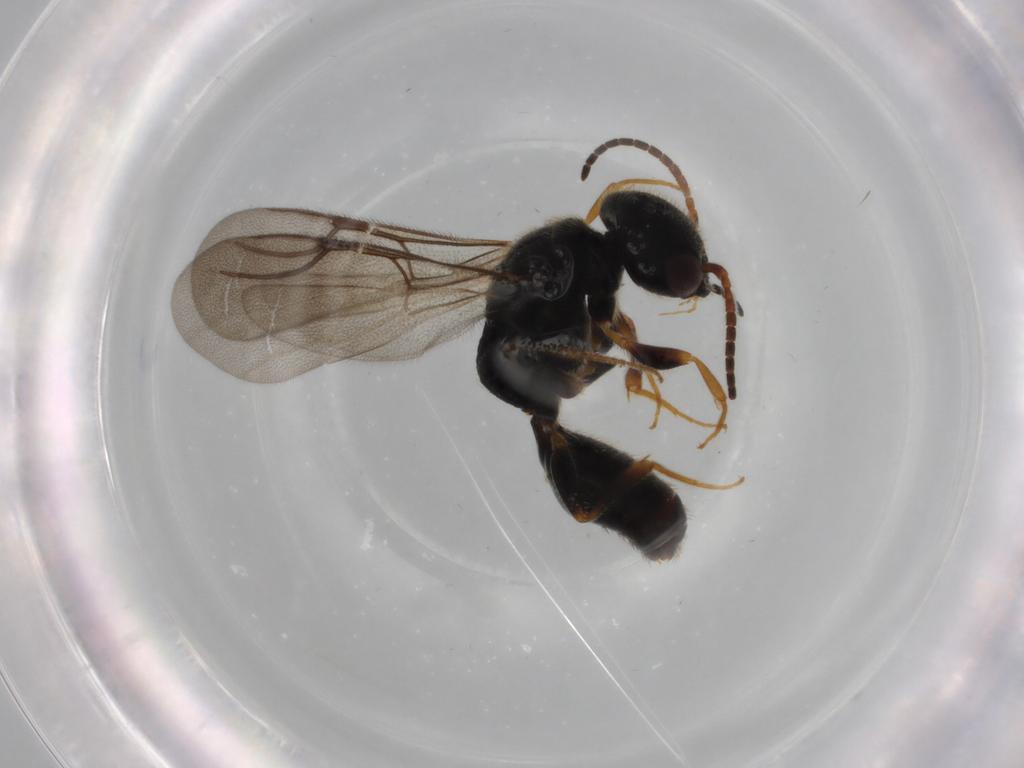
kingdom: Animalia
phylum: Arthropoda
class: Insecta
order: Hymenoptera
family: Bethylidae
